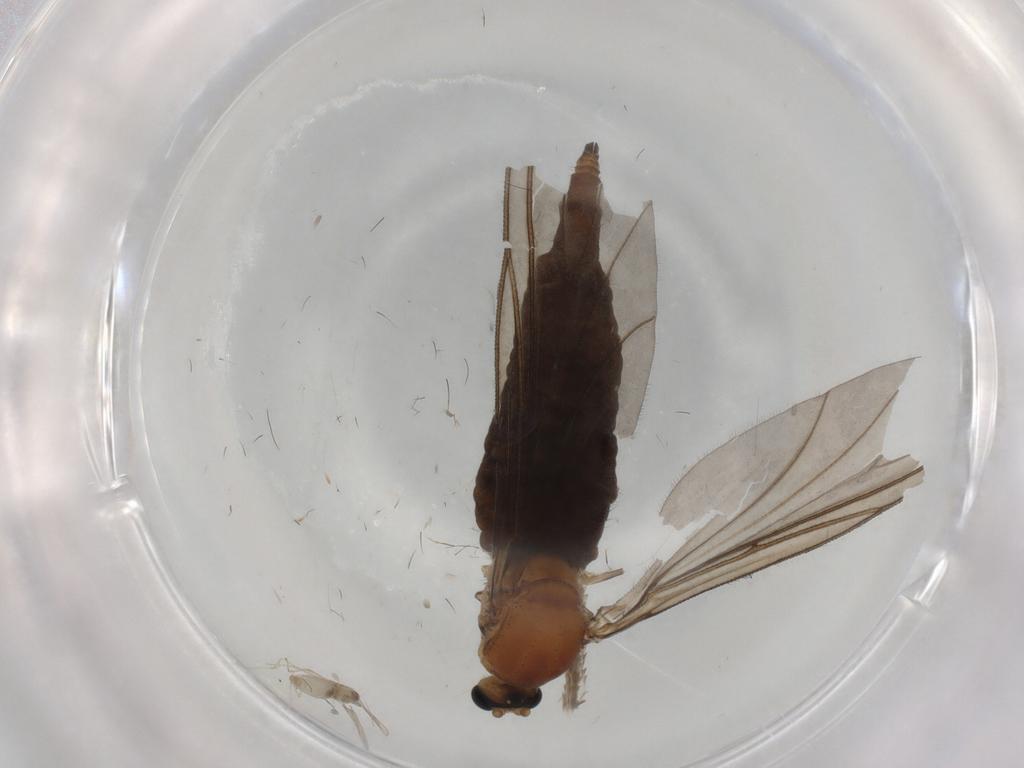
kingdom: Animalia
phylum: Arthropoda
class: Insecta
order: Diptera
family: Sciaridae
